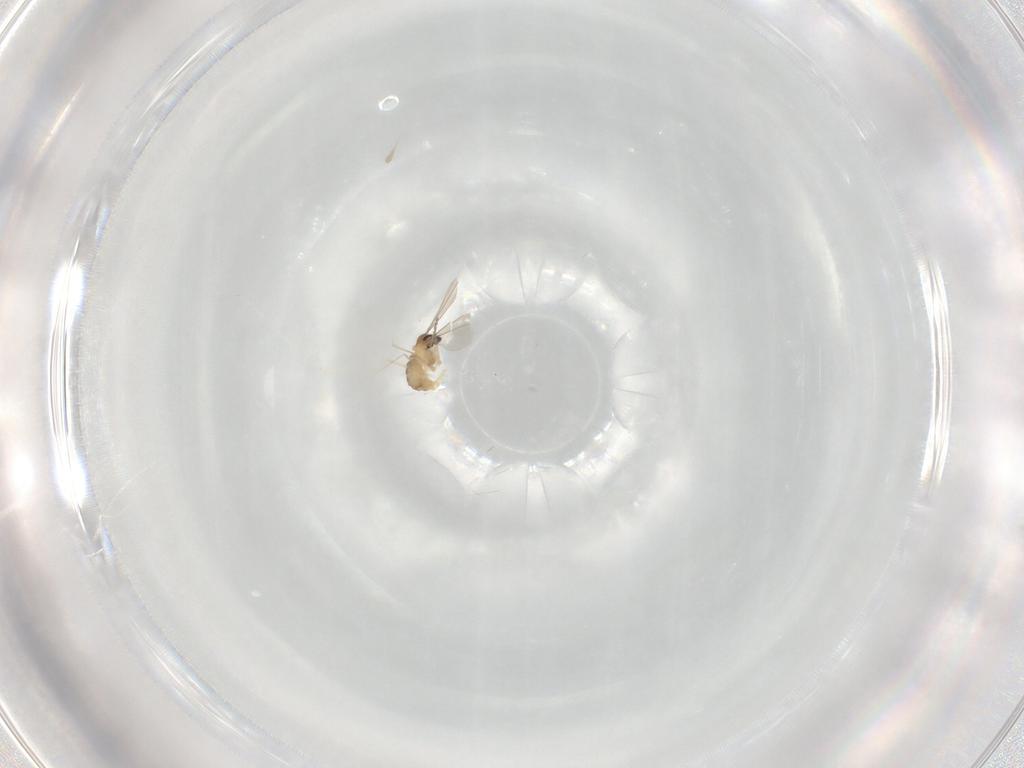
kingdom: Animalia
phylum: Arthropoda
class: Insecta
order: Diptera
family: Cecidomyiidae
